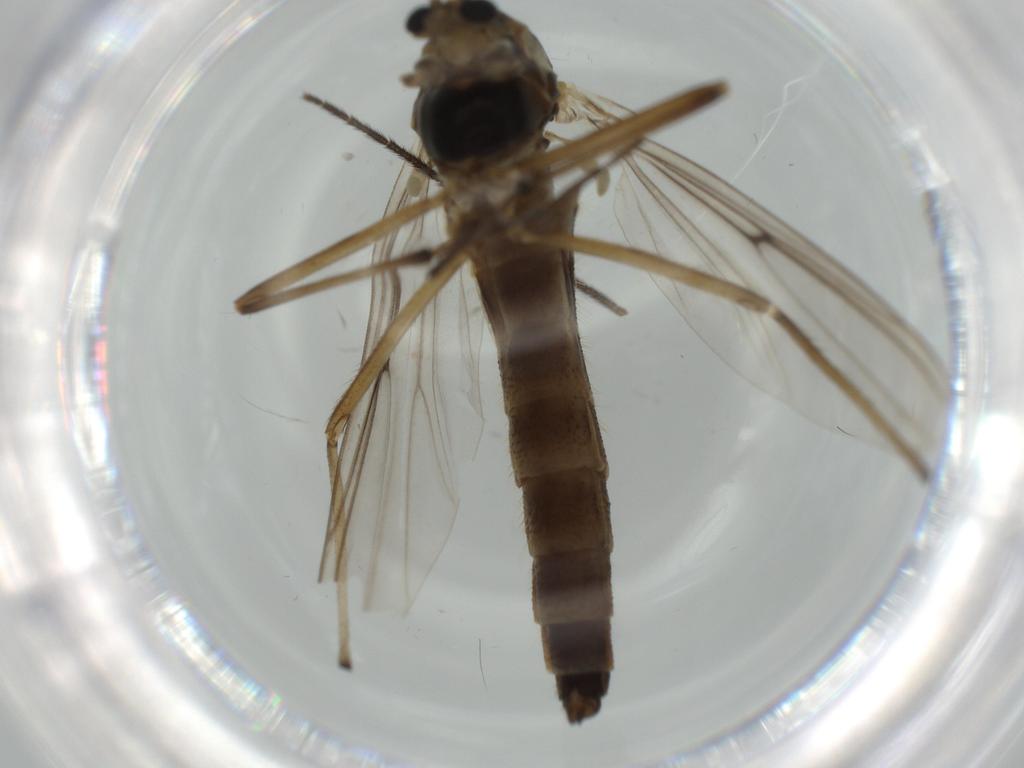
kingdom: Animalia
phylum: Arthropoda
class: Insecta
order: Diptera
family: Chironomidae
